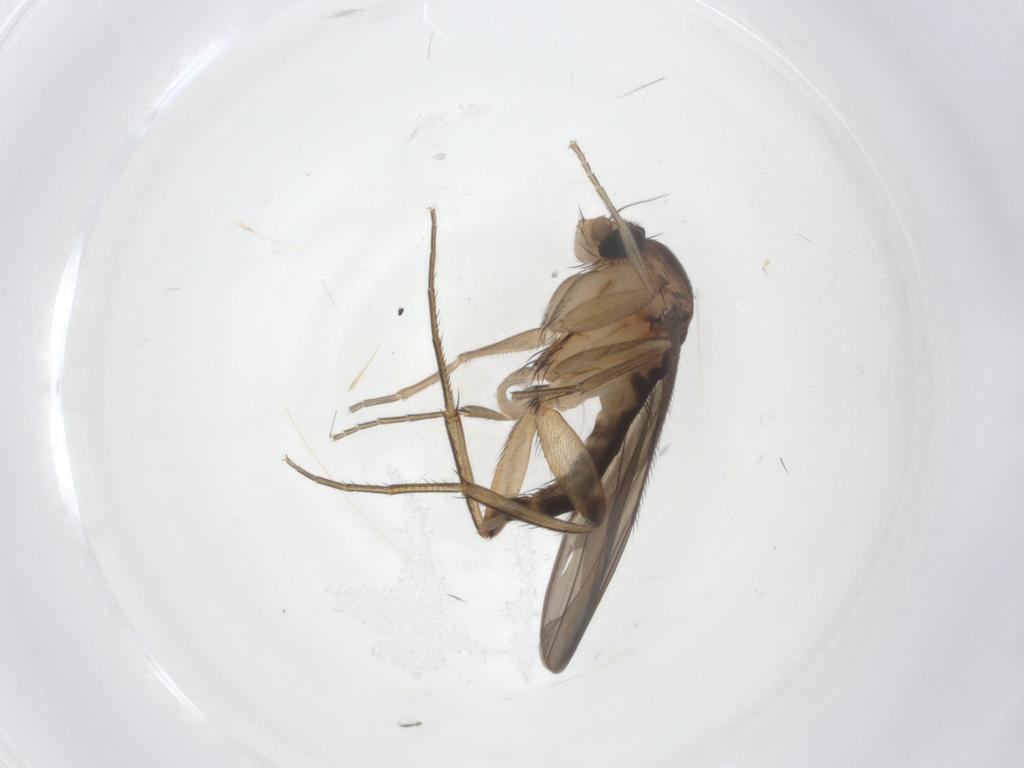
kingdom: Animalia
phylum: Arthropoda
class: Insecta
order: Diptera
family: Phoridae
